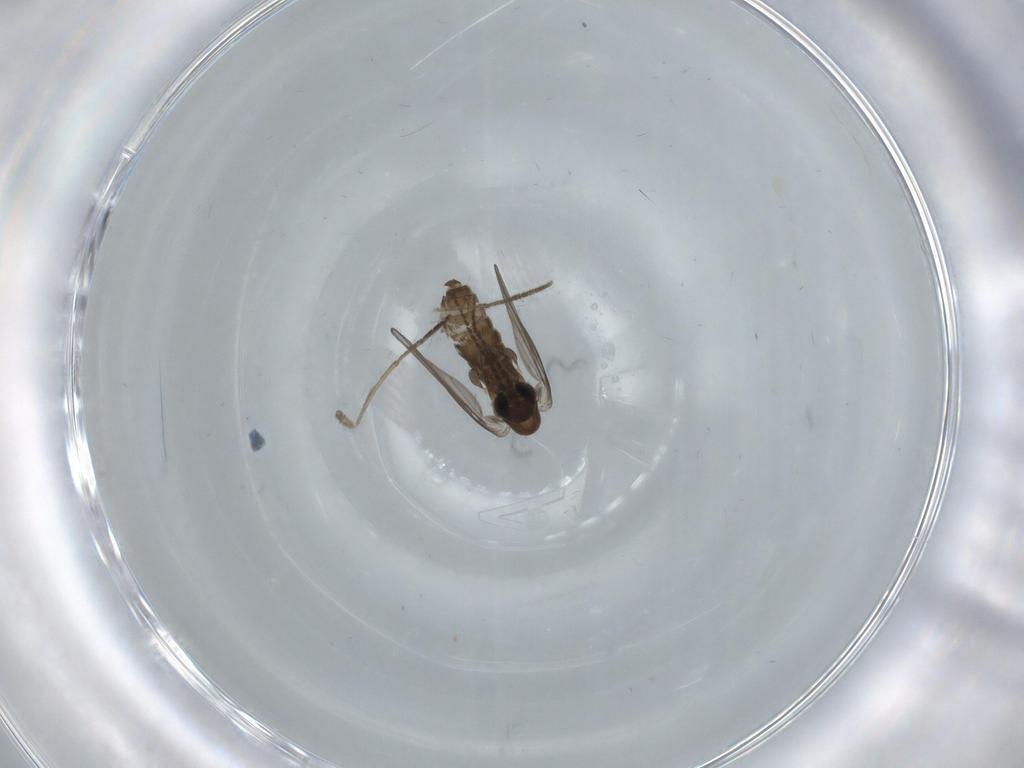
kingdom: Animalia
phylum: Arthropoda
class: Insecta
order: Diptera
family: Psychodidae
